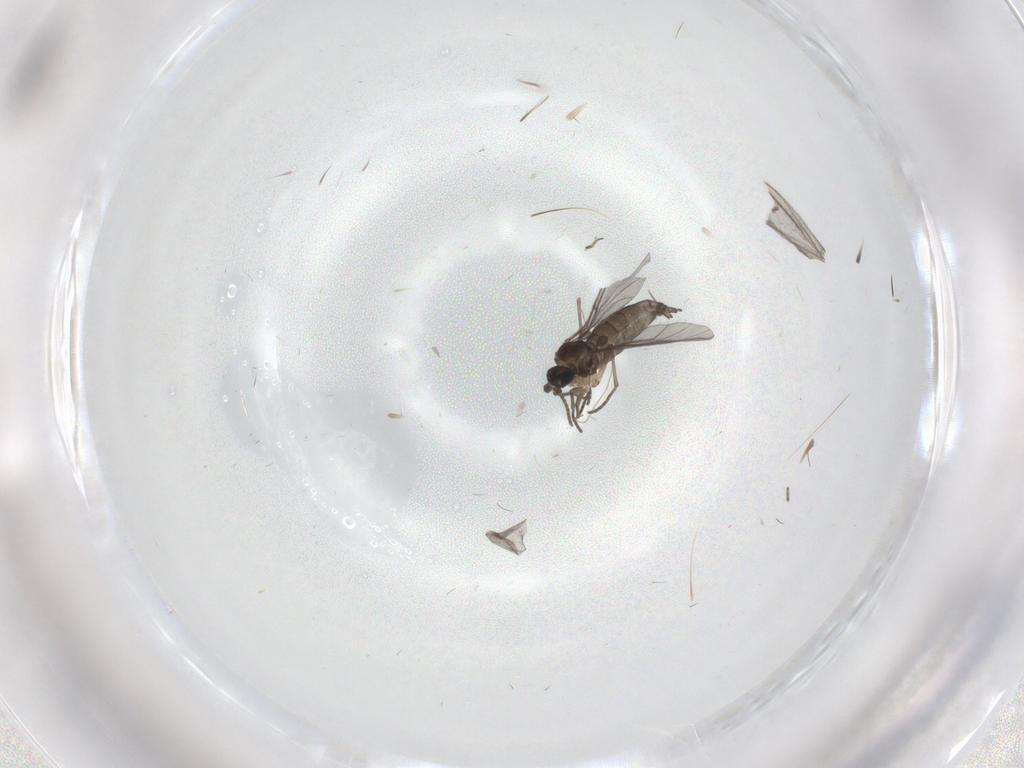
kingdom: Animalia
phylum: Arthropoda
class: Insecta
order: Diptera
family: Sciaridae
